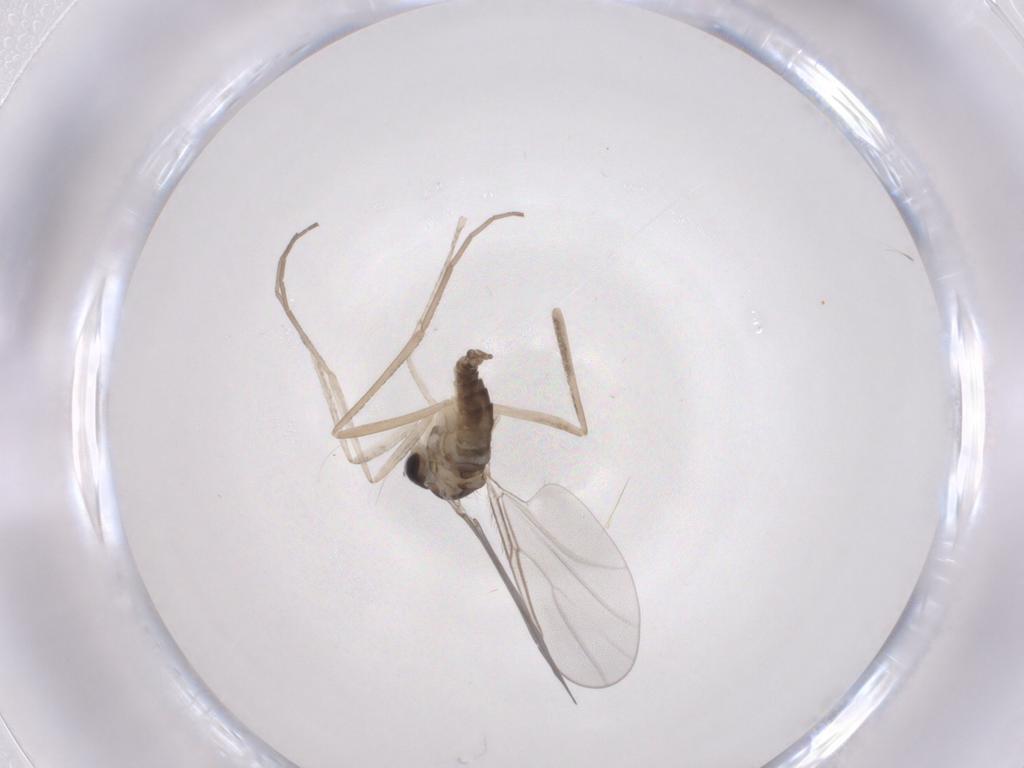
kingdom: Animalia
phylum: Arthropoda
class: Insecta
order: Diptera
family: Cecidomyiidae
